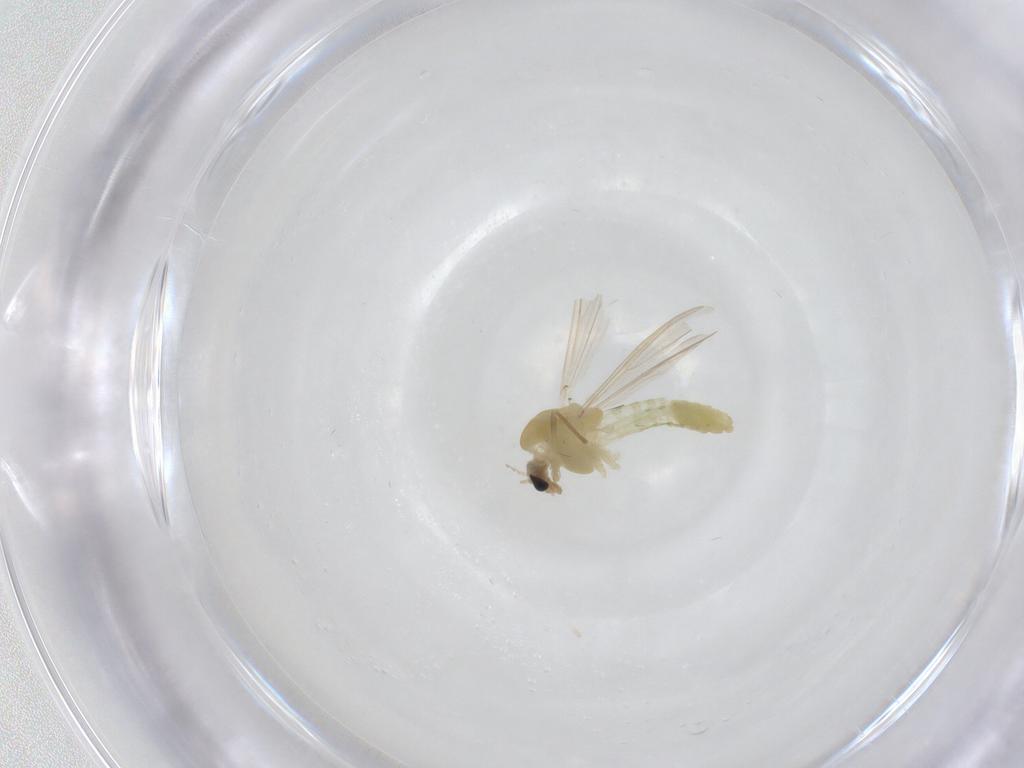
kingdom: Animalia
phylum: Arthropoda
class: Insecta
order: Diptera
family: Chironomidae
